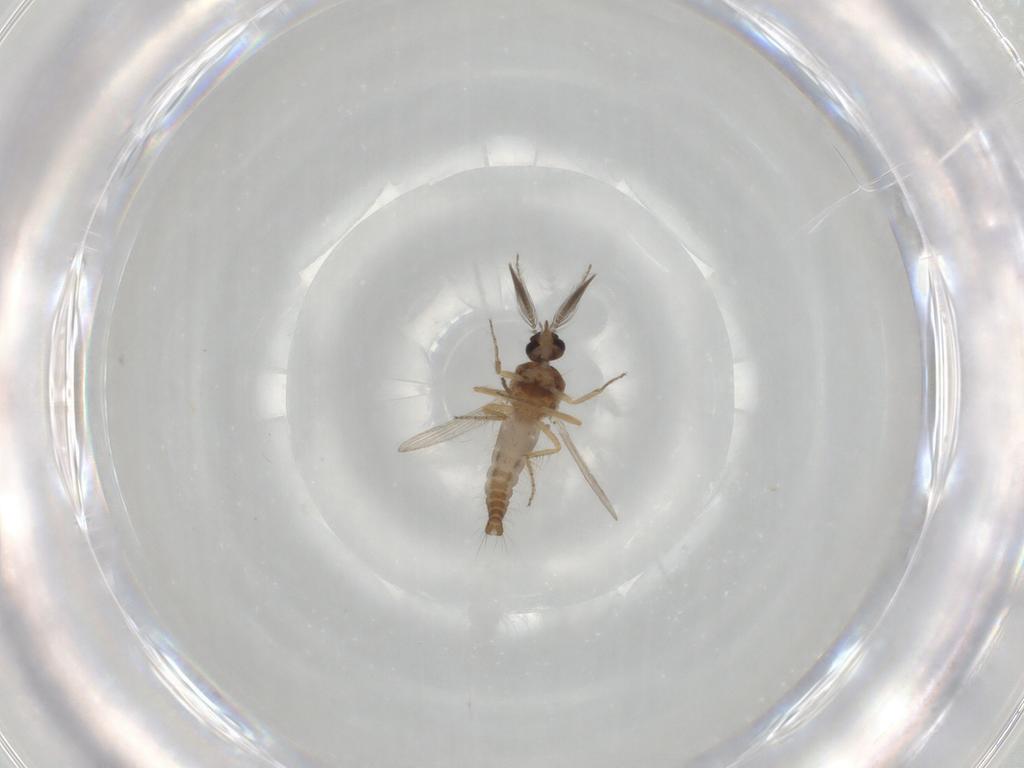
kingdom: Animalia
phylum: Arthropoda
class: Insecta
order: Diptera
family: Ceratopogonidae
